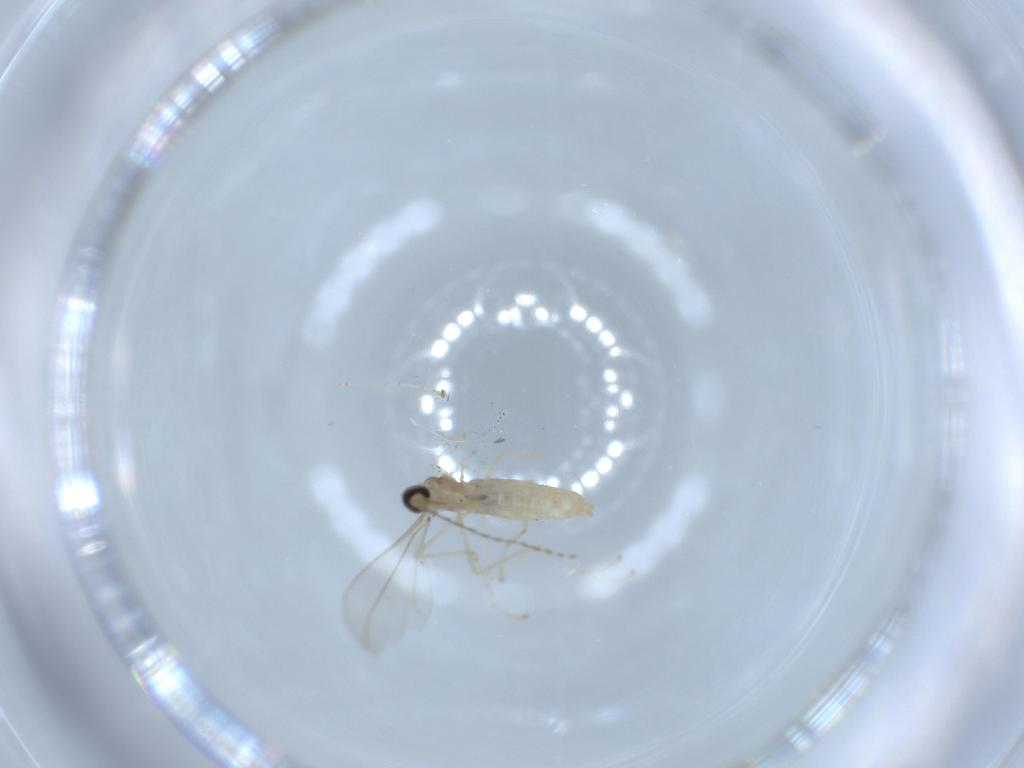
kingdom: Animalia
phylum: Arthropoda
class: Insecta
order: Diptera
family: Cecidomyiidae
